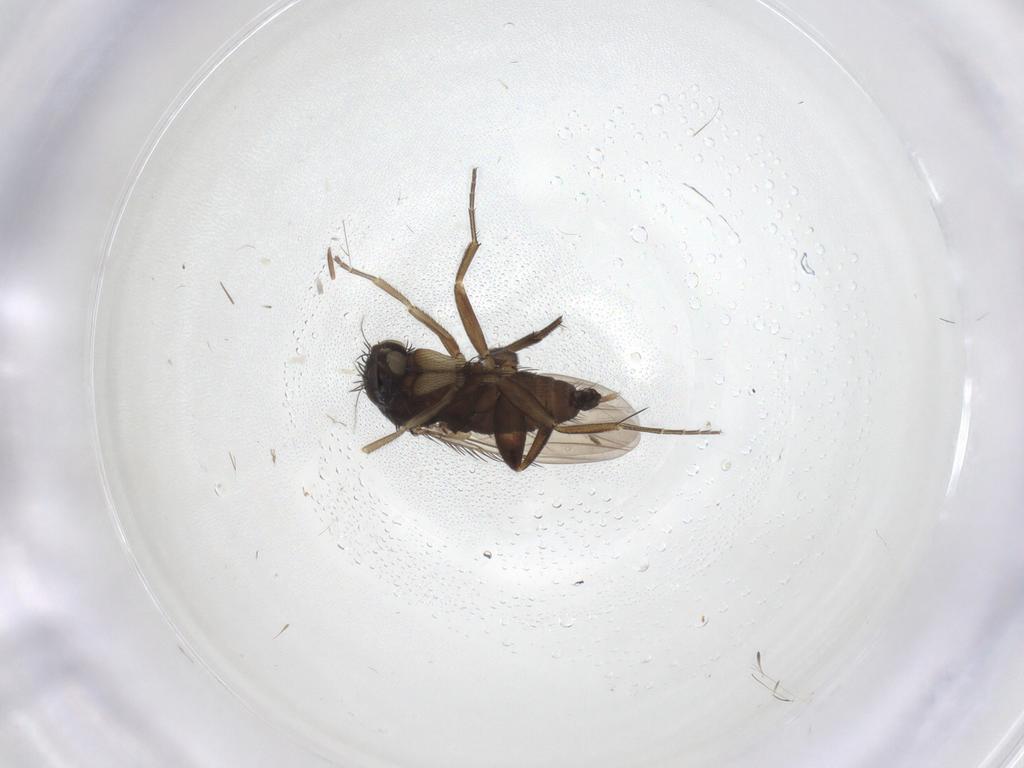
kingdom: Animalia
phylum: Arthropoda
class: Insecta
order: Diptera
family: Phoridae
